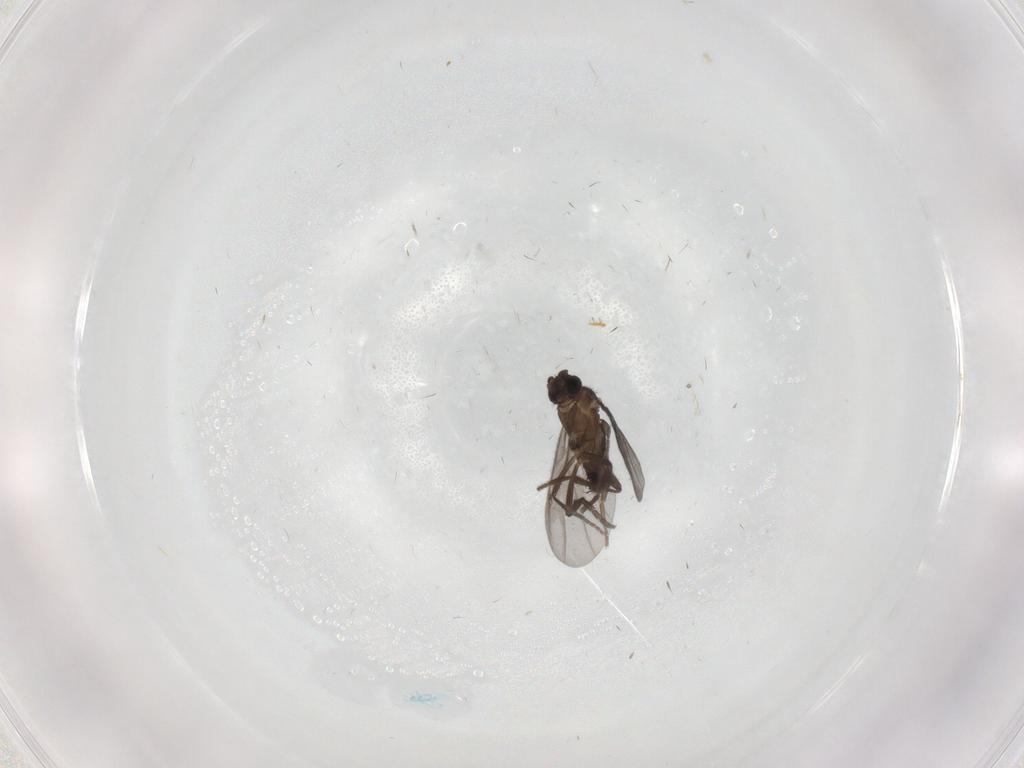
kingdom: Animalia
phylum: Arthropoda
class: Insecta
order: Diptera
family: Phoridae
